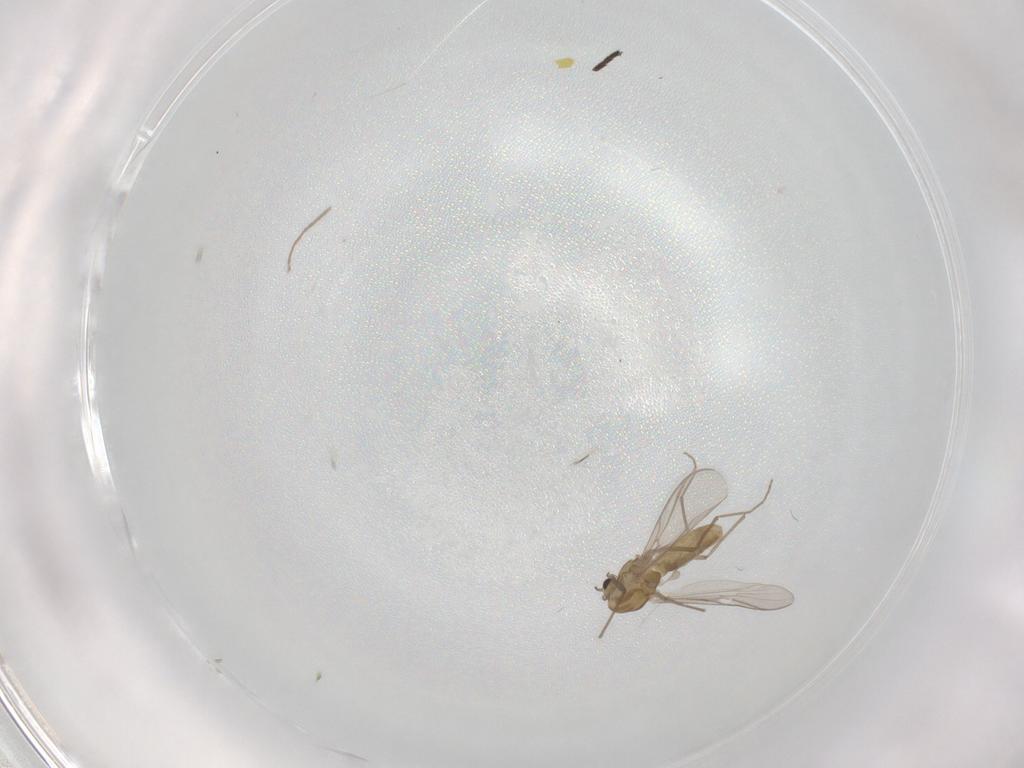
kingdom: Animalia
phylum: Arthropoda
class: Insecta
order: Diptera
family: Chironomidae
